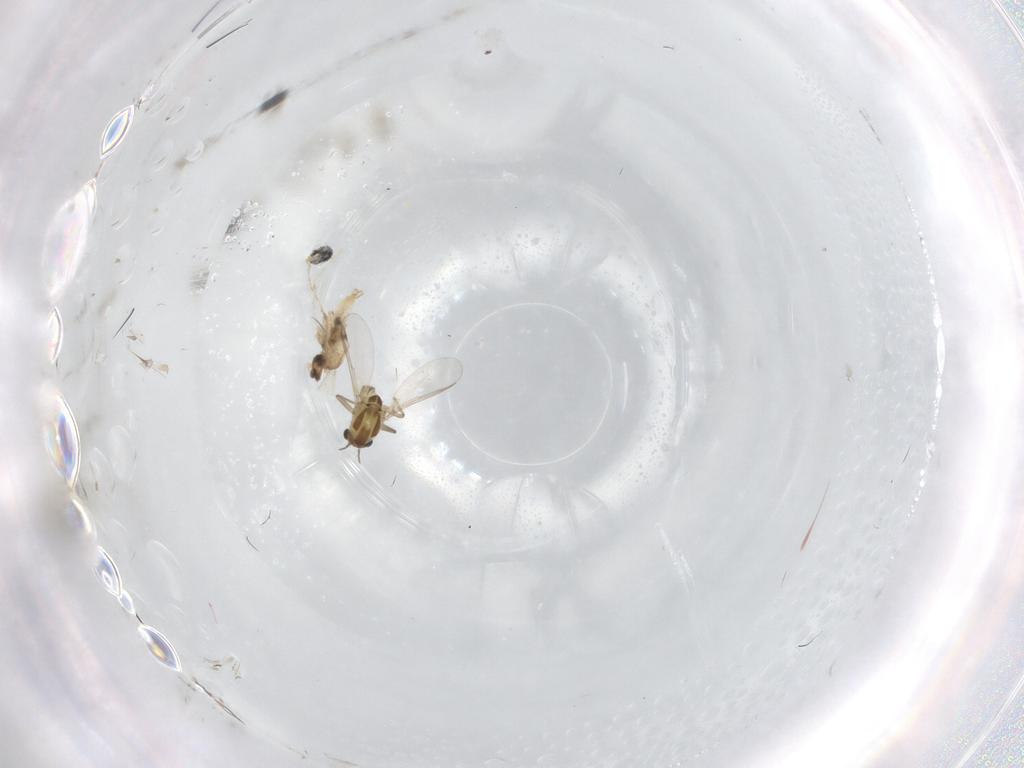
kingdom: Animalia
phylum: Arthropoda
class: Insecta
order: Diptera
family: Cecidomyiidae
